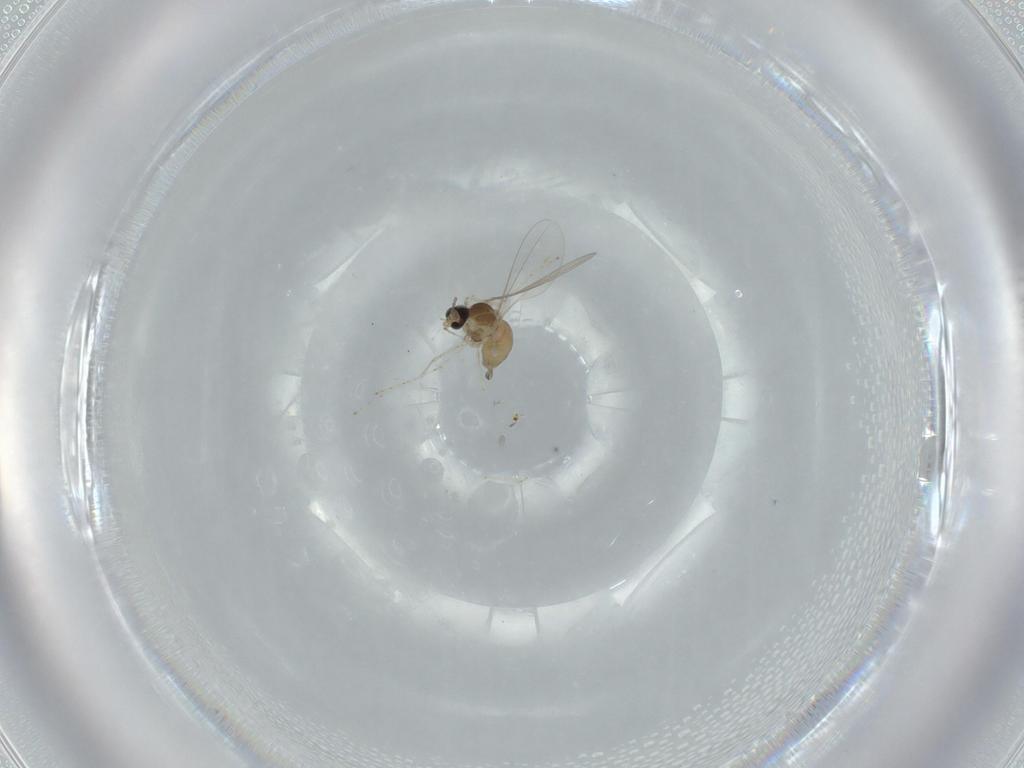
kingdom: Animalia
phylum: Arthropoda
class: Insecta
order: Diptera
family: Cecidomyiidae
